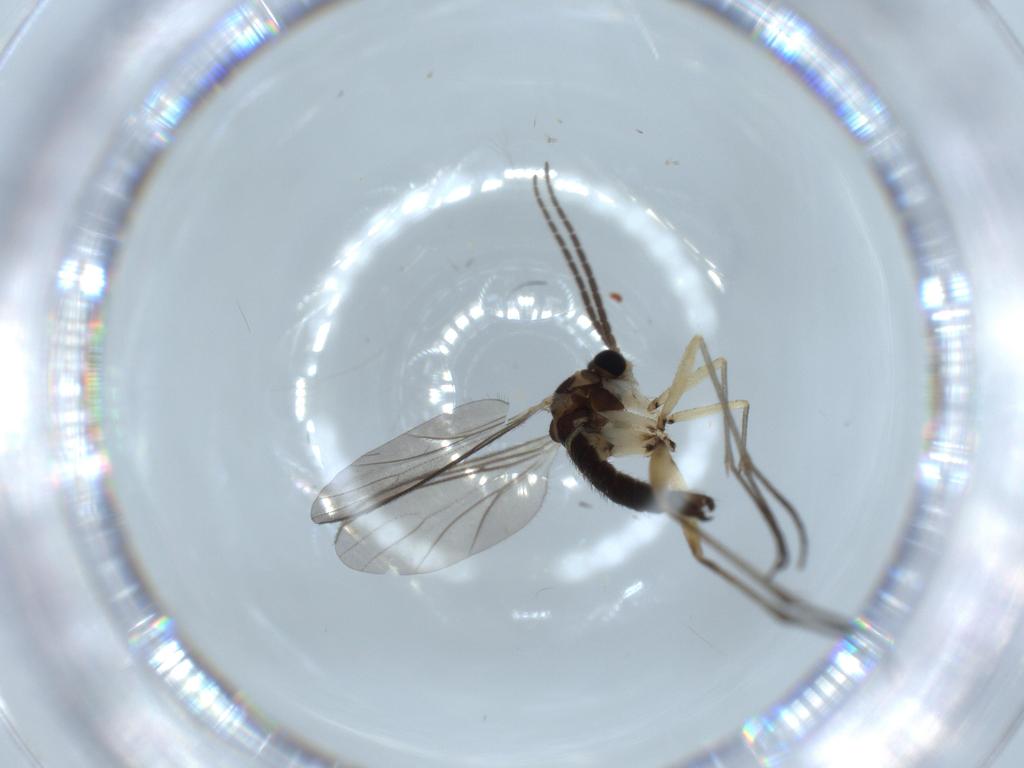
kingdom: Animalia
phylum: Arthropoda
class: Insecta
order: Diptera
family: Sciaridae
